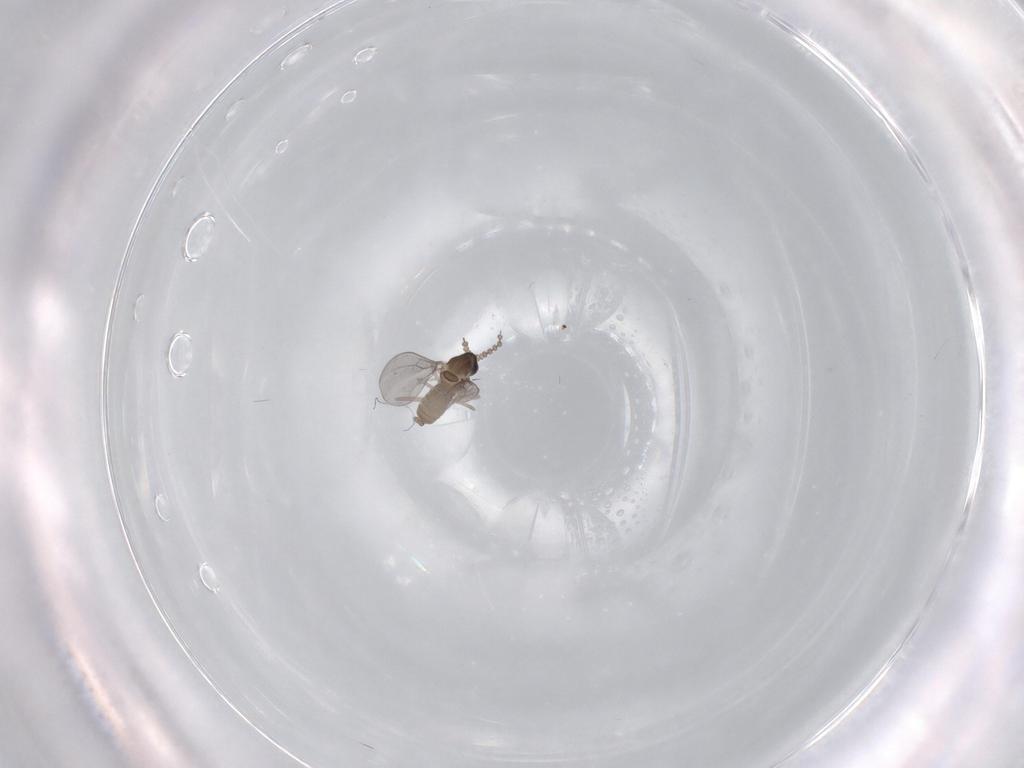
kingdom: Animalia
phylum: Arthropoda
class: Insecta
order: Diptera
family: Cecidomyiidae
